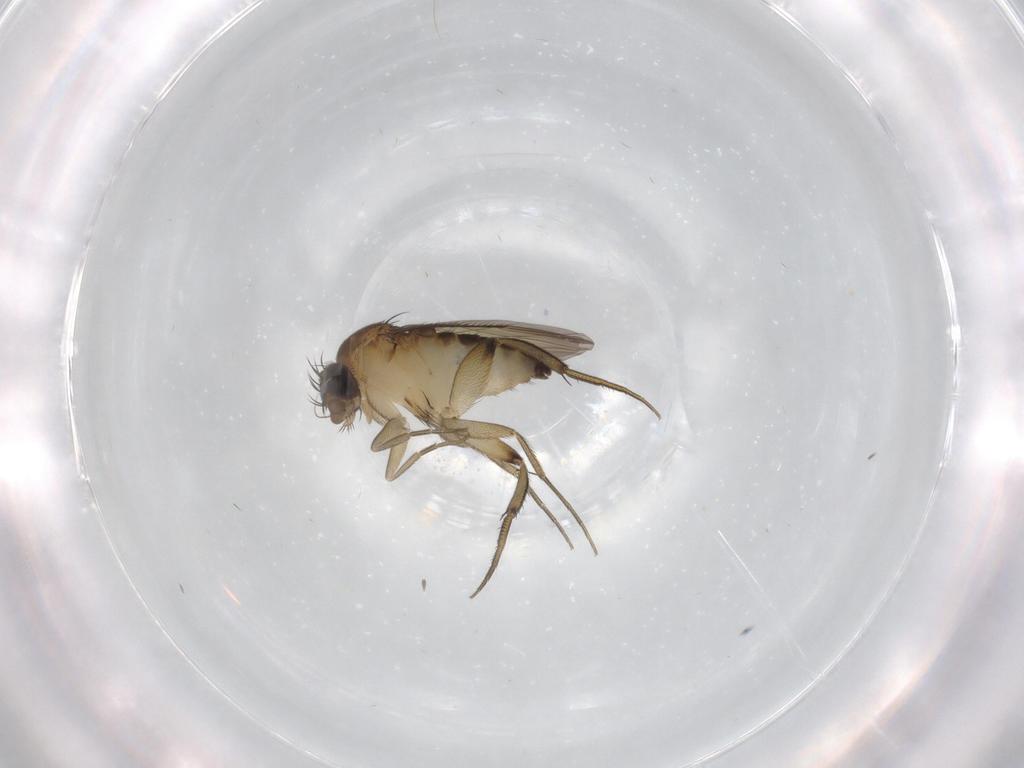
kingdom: Animalia
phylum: Arthropoda
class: Insecta
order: Diptera
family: Phoridae
